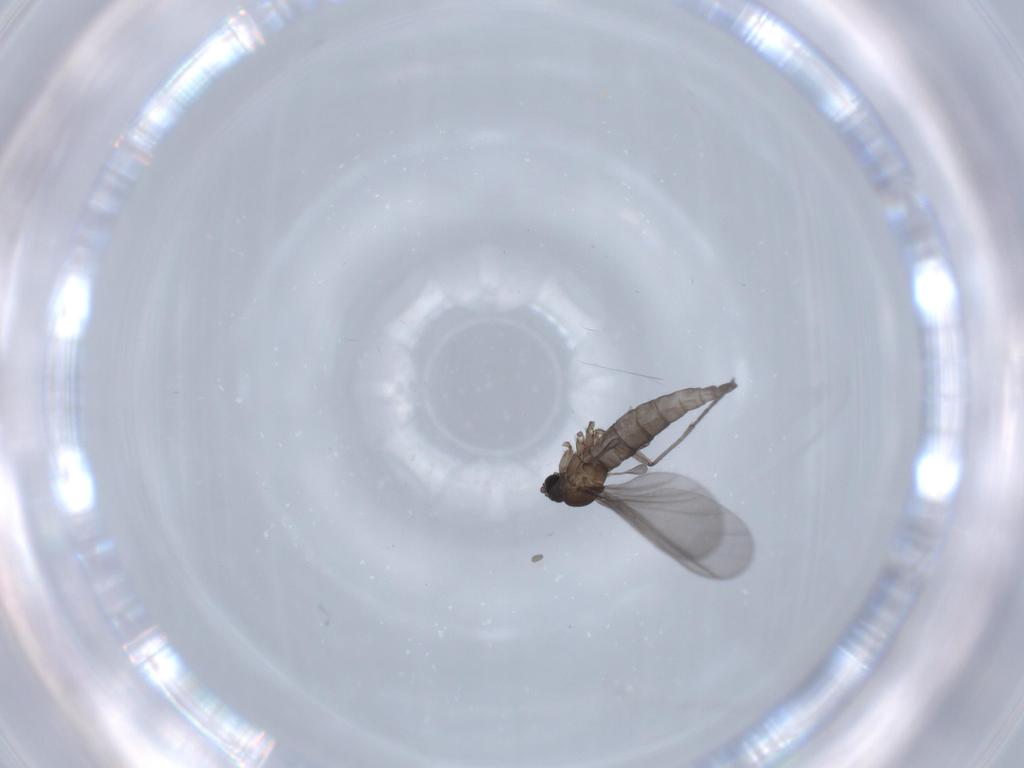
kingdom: Animalia
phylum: Arthropoda
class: Insecta
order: Diptera
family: Sciaridae
